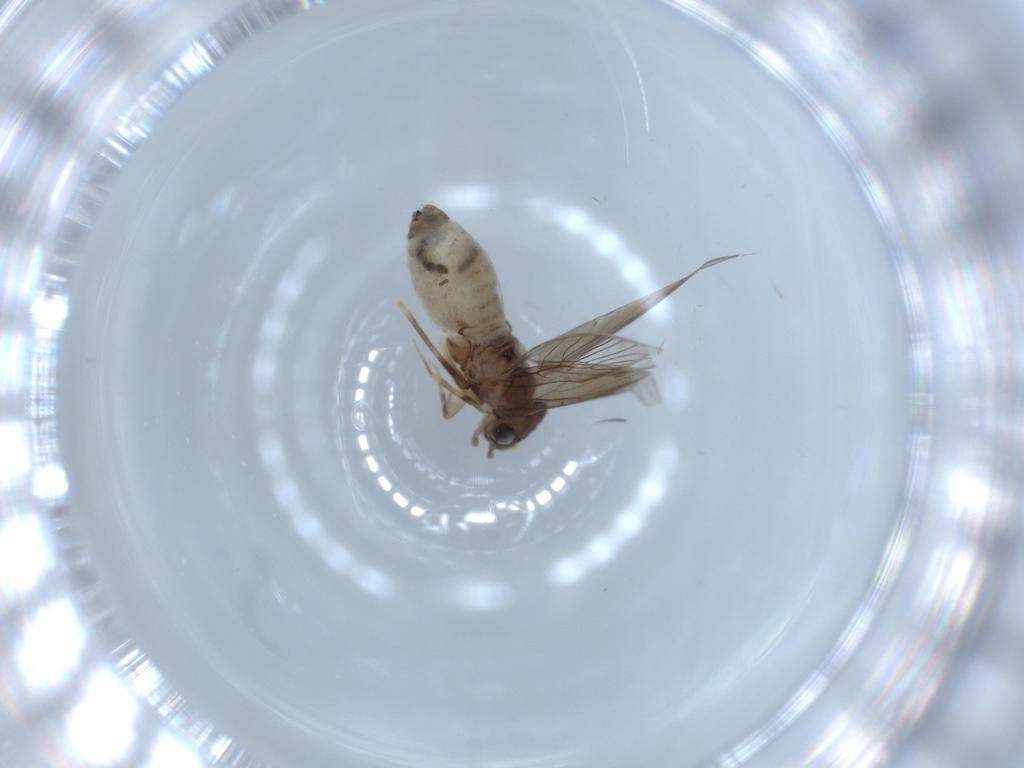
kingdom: Animalia
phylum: Arthropoda
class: Insecta
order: Psocodea
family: Lepidopsocidae
